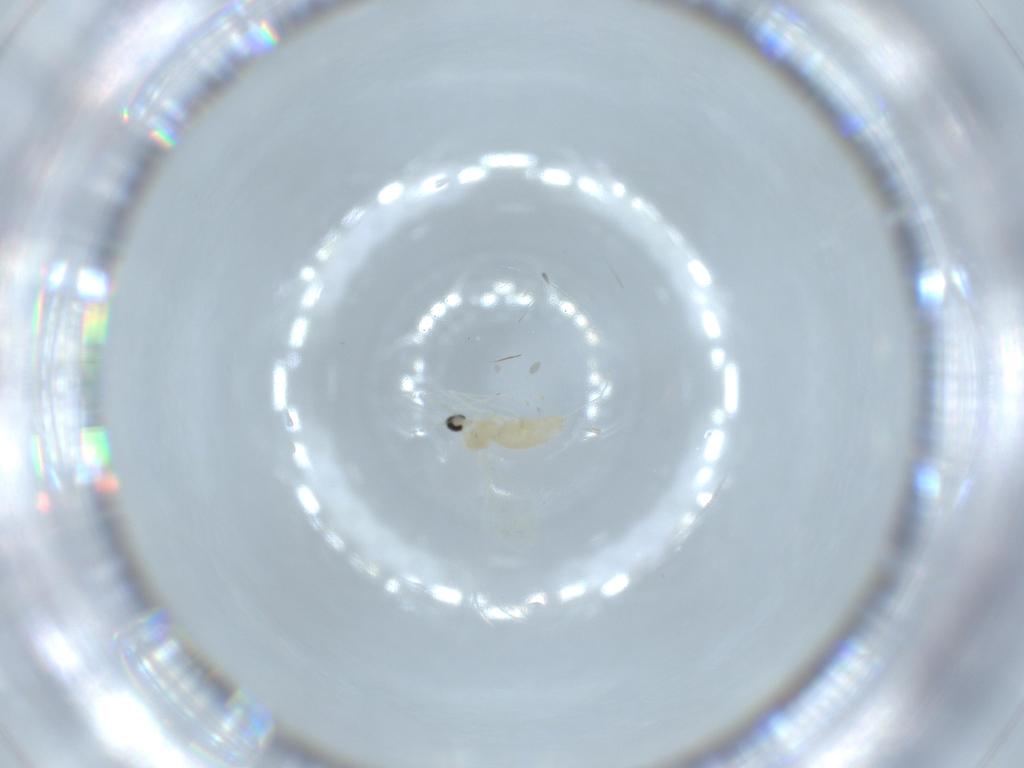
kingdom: Animalia
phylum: Arthropoda
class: Insecta
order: Diptera
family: Cecidomyiidae
